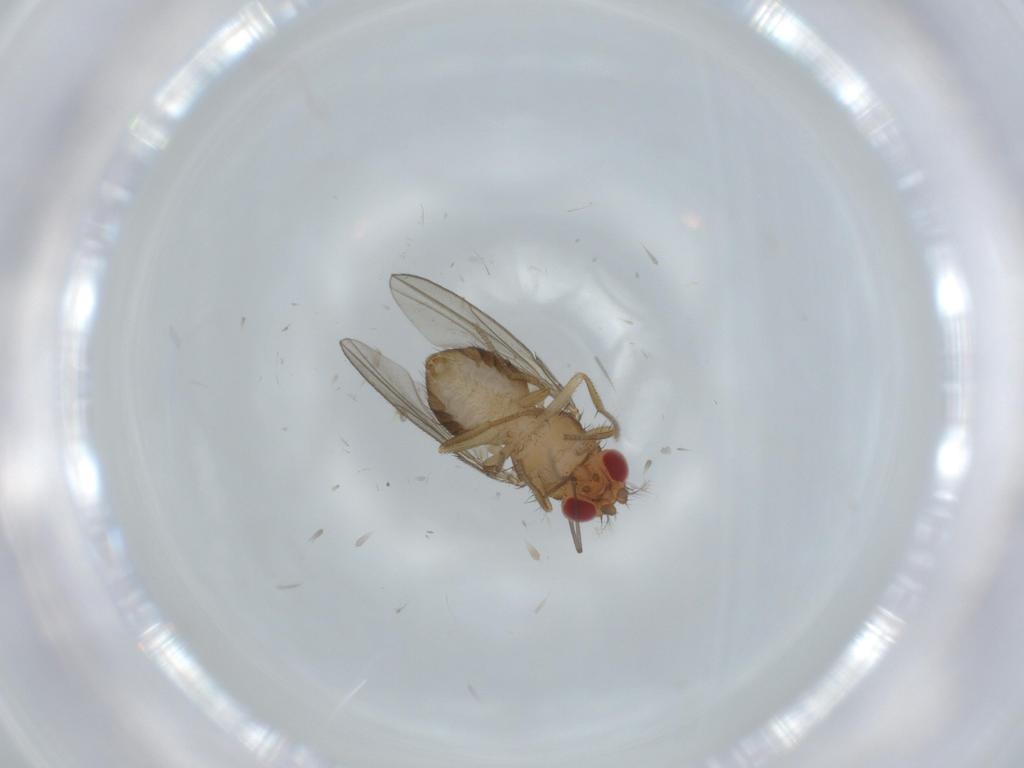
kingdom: Animalia
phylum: Arthropoda
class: Insecta
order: Diptera
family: Drosophilidae
